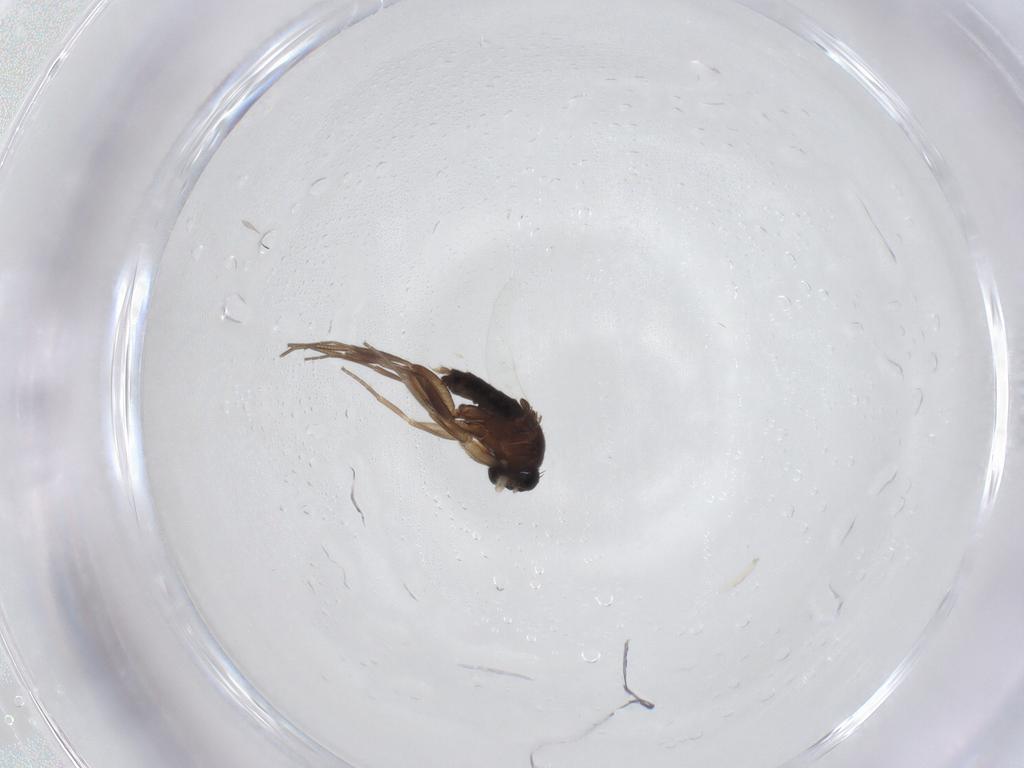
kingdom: Animalia
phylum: Arthropoda
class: Insecta
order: Diptera
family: Phoridae
